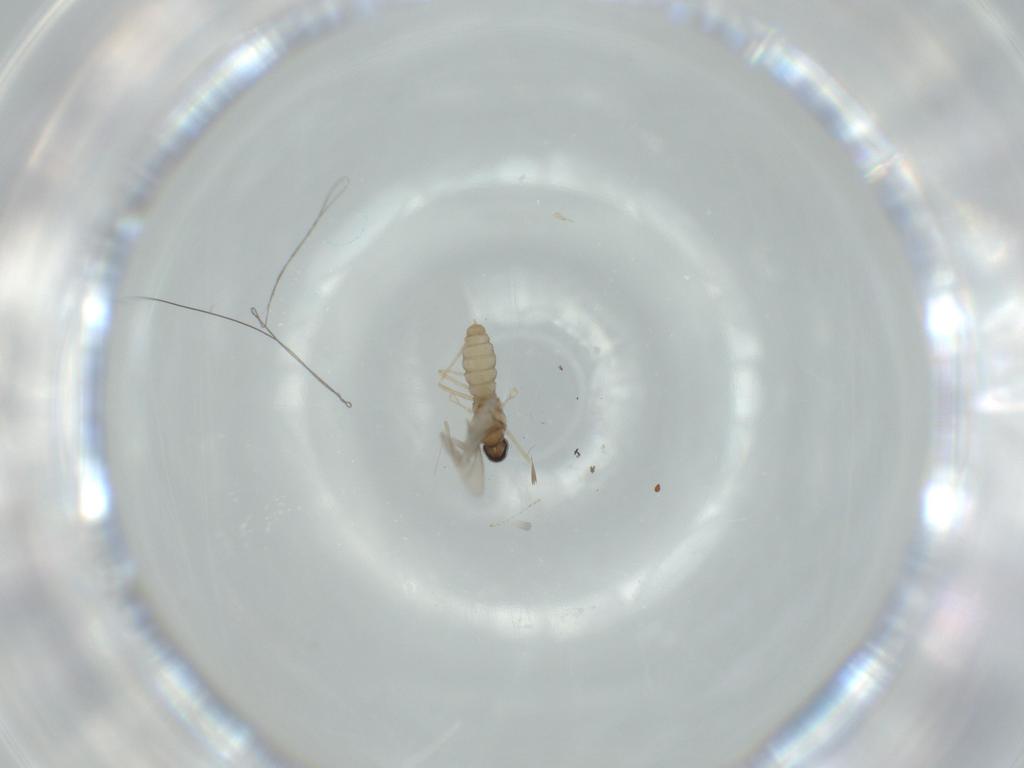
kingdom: Animalia
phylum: Arthropoda
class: Insecta
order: Diptera
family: Cecidomyiidae
